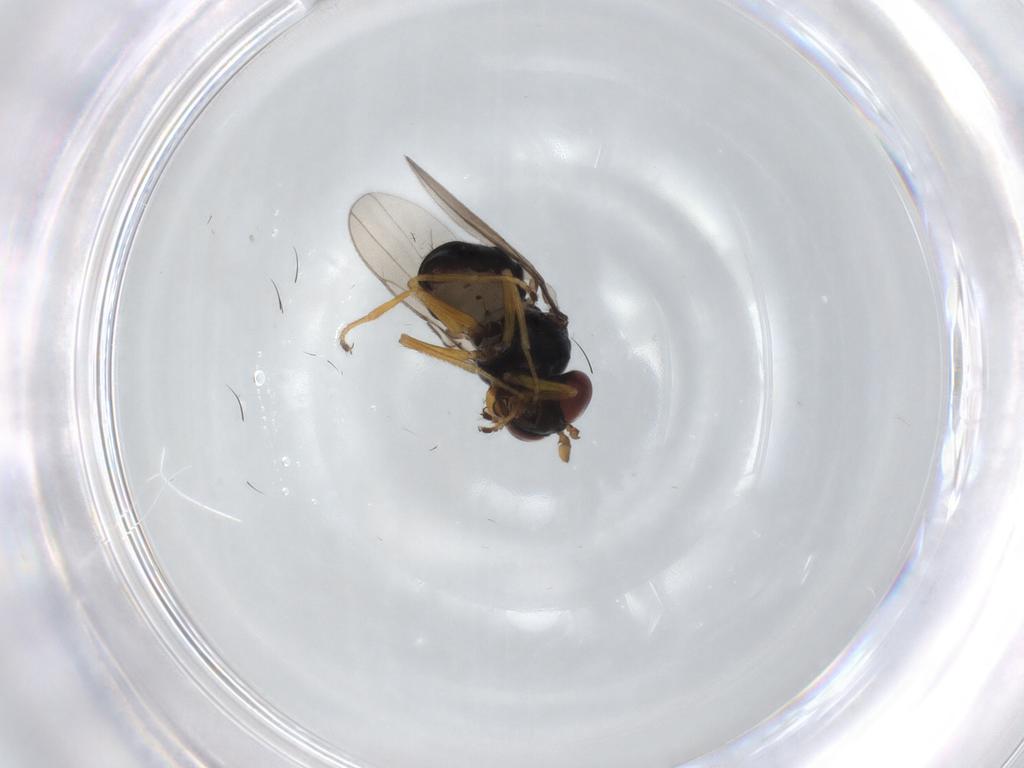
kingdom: Animalia
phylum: Arthropoda
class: Insecta
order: Diptera
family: Ephydridae
